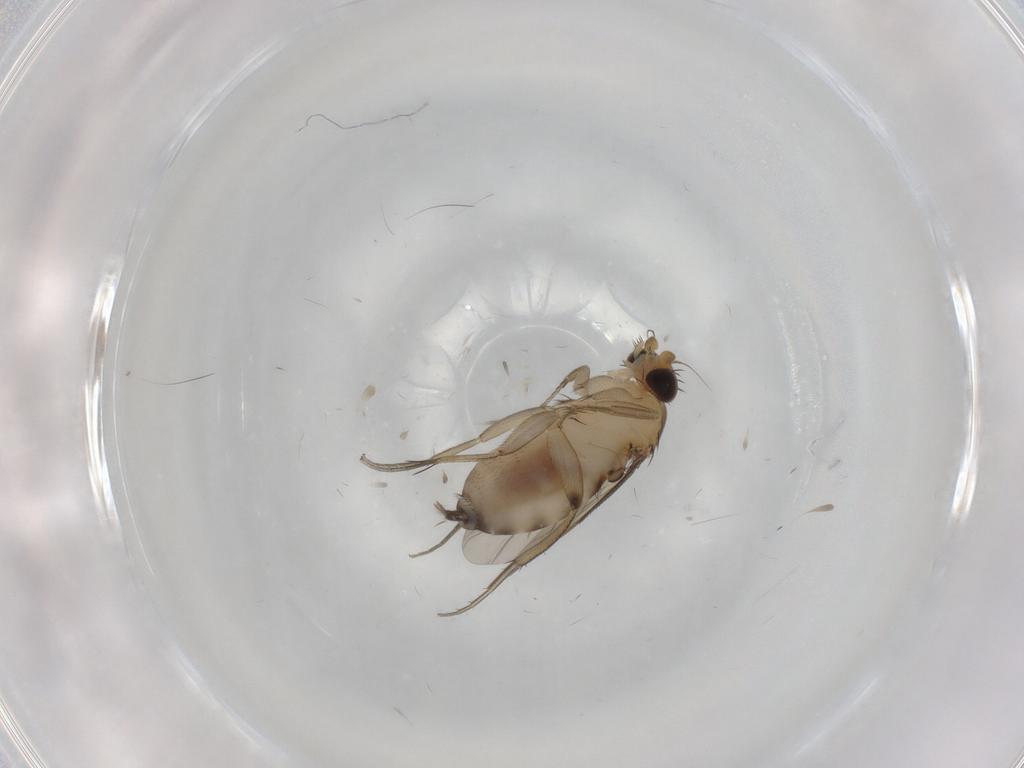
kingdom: Animalia
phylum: Arthropoda
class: Insecta
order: Diptera
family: Phoridae
